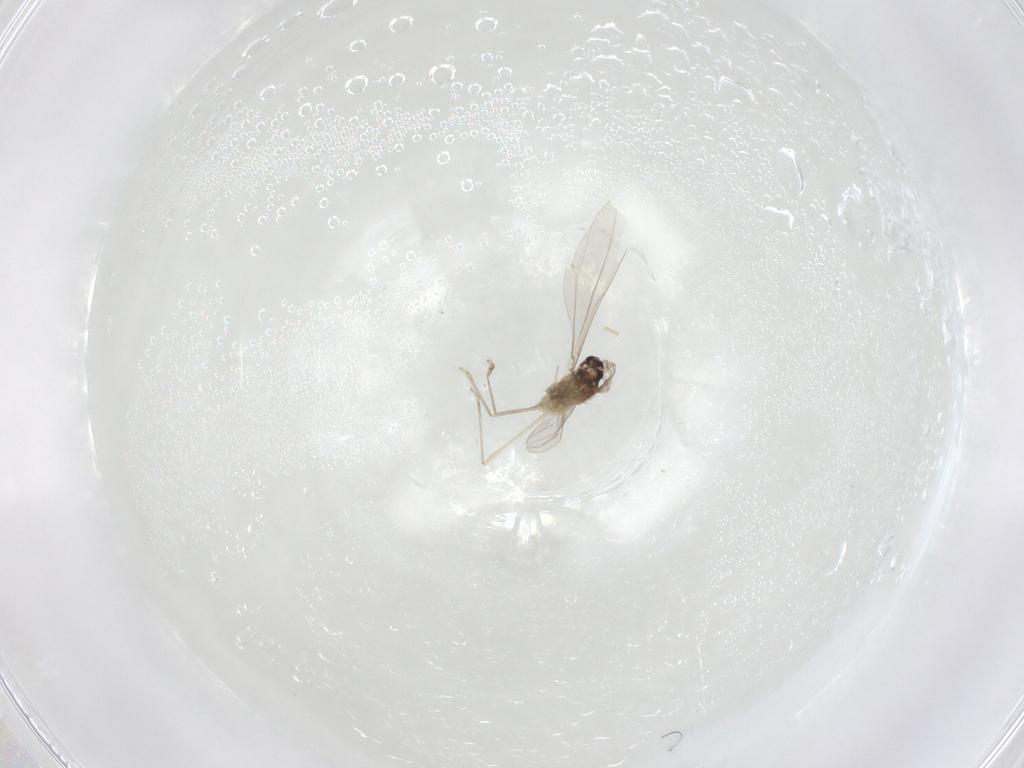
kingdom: Animalia
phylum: Arthropoda
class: Insecta
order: Diptera
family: Cecidomyiidae
